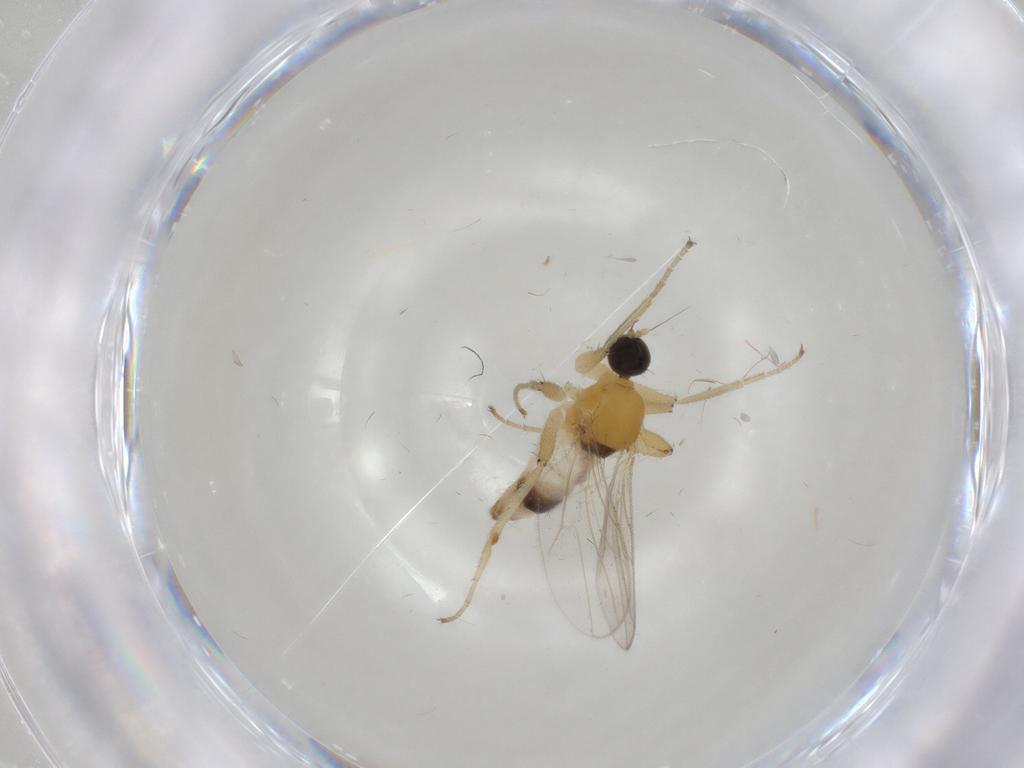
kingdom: Animalia
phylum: Arthropoda
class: Insecta
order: Diptera
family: Hybotidae
